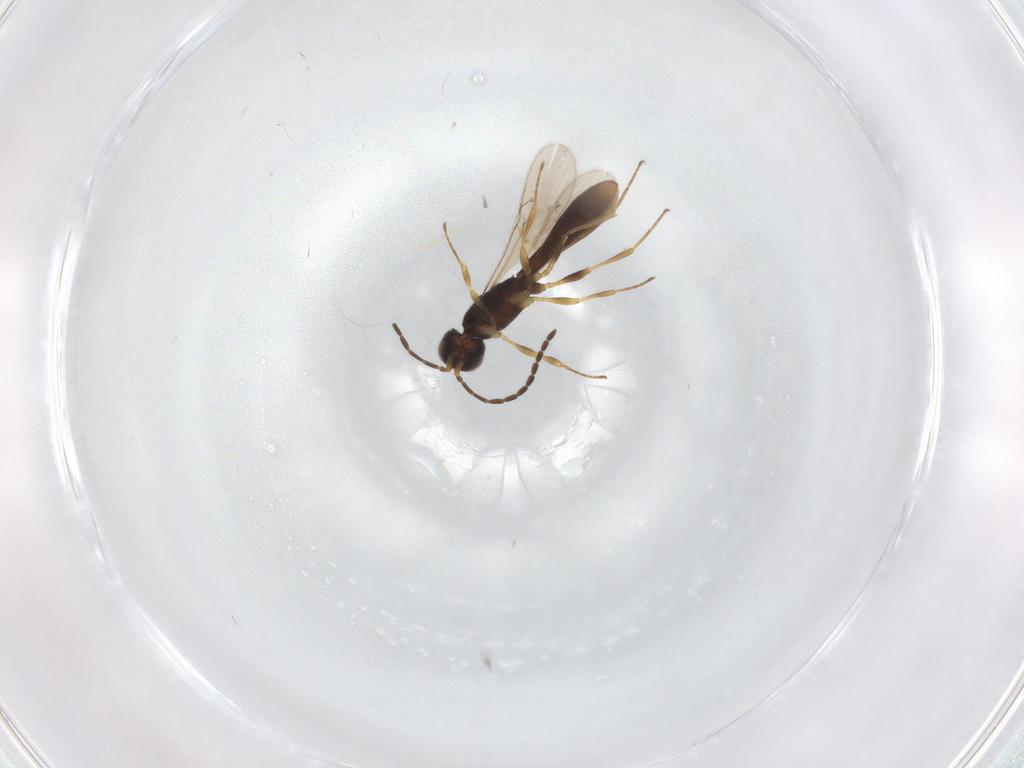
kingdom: Animalia
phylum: Arthropoda
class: Insecta
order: Hymenoptera
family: Scelionidae
